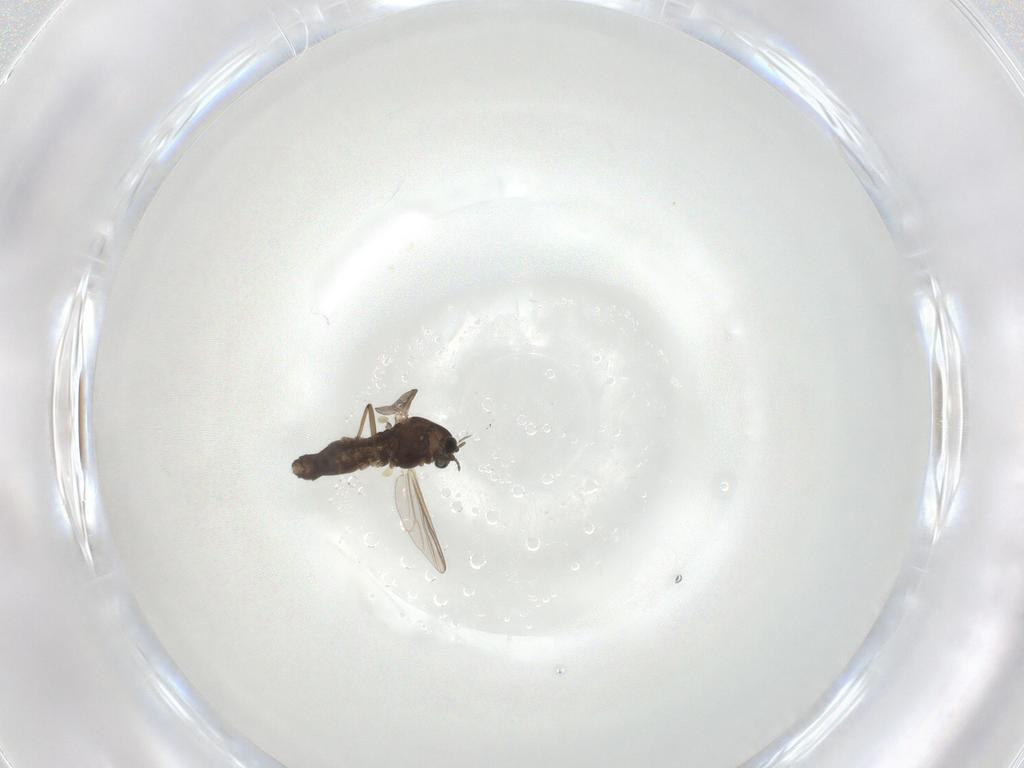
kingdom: Animalia
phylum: Arthropoda
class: Insecta
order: Diptera
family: Chironomidae
